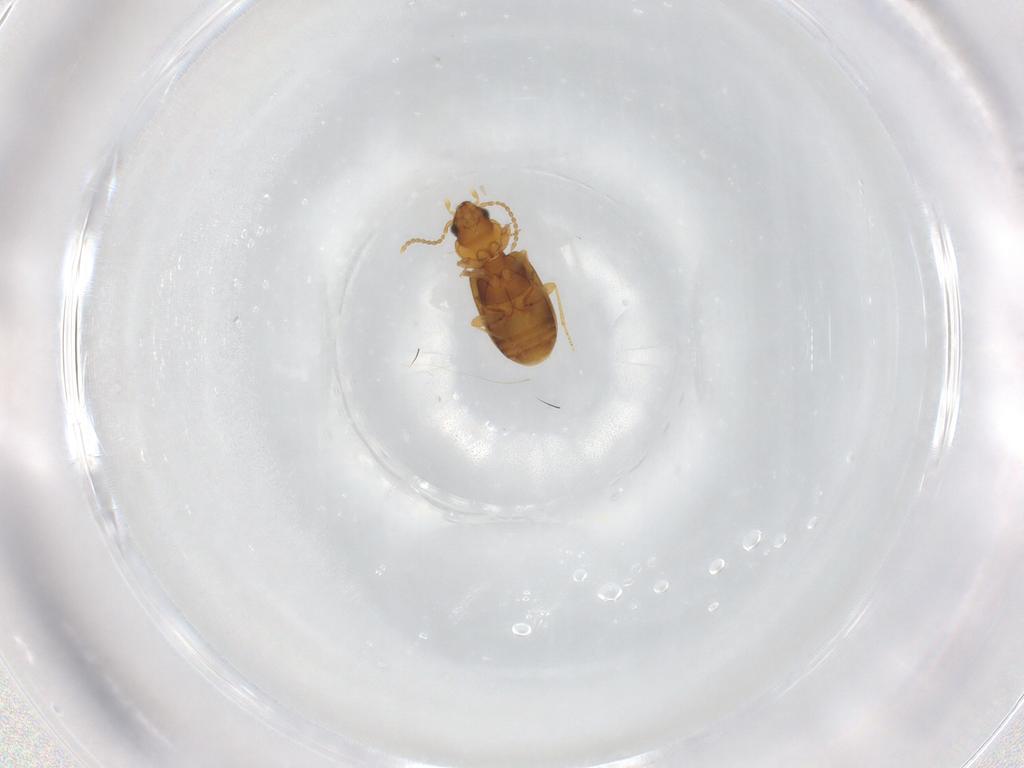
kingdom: Animalia
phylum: Arthropoda
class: Insecta
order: Coleoptera
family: Carabidae
